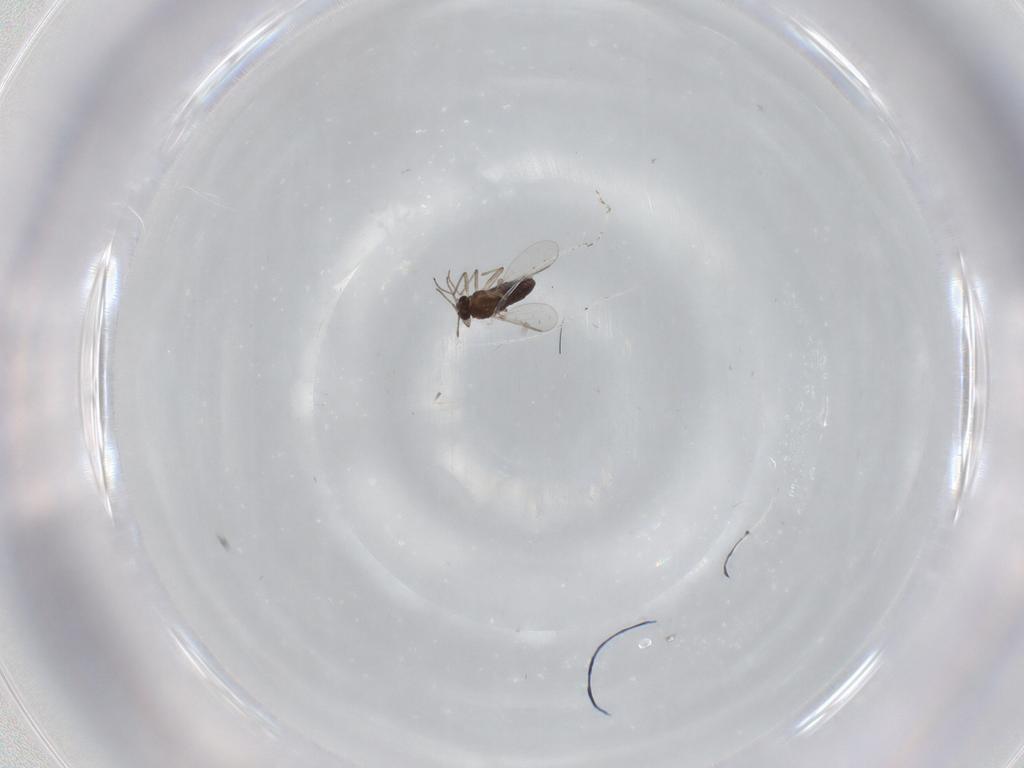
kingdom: Animalia
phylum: Arthropoda
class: Insecta
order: Diptera
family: Chironomidae
